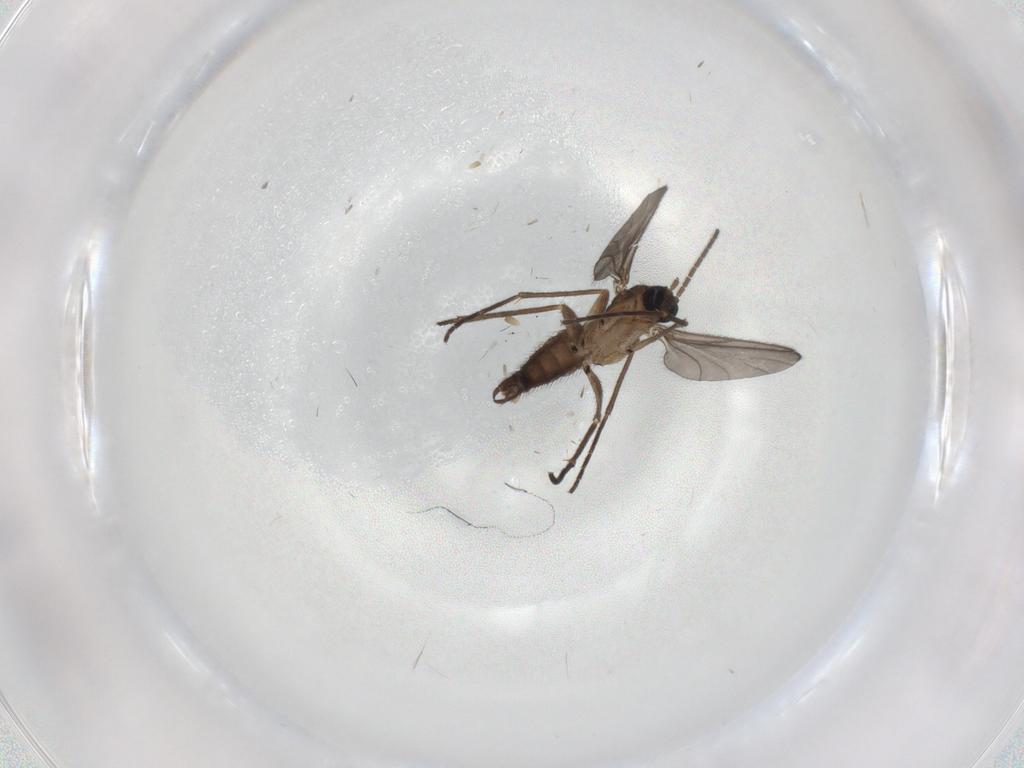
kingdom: Animalia
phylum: Arthropoda
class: Insecta
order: Diptera
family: Sciaridae
